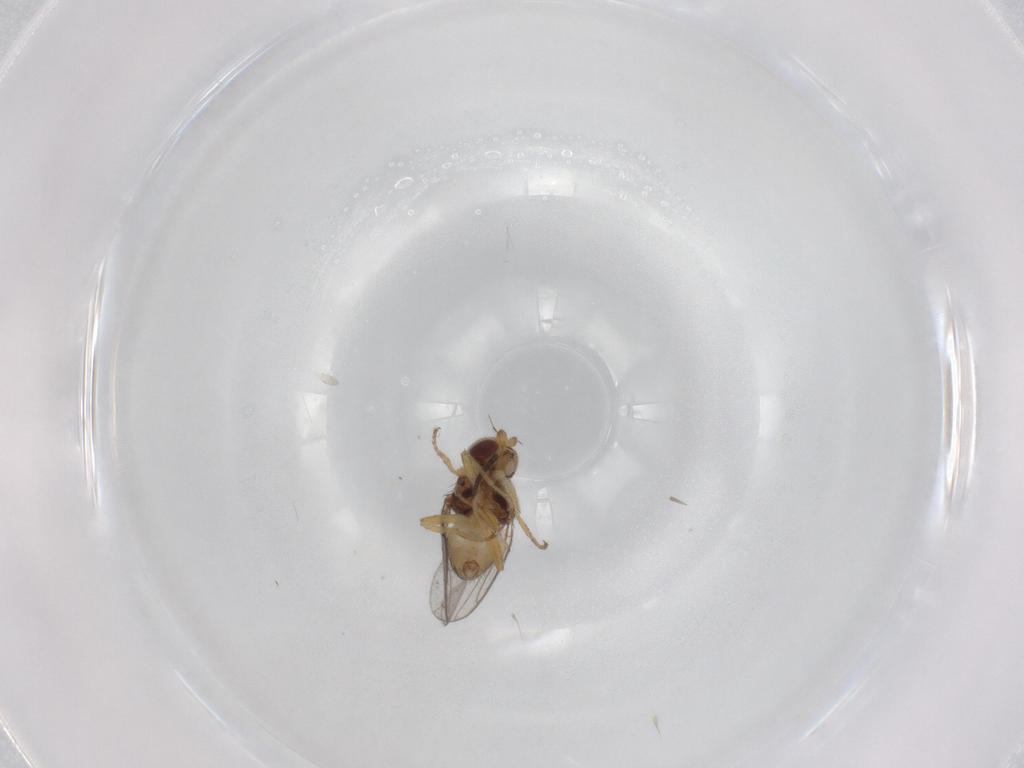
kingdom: Animalia
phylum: Arthropoda
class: Insecta
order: Diptera
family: Chloropidae
